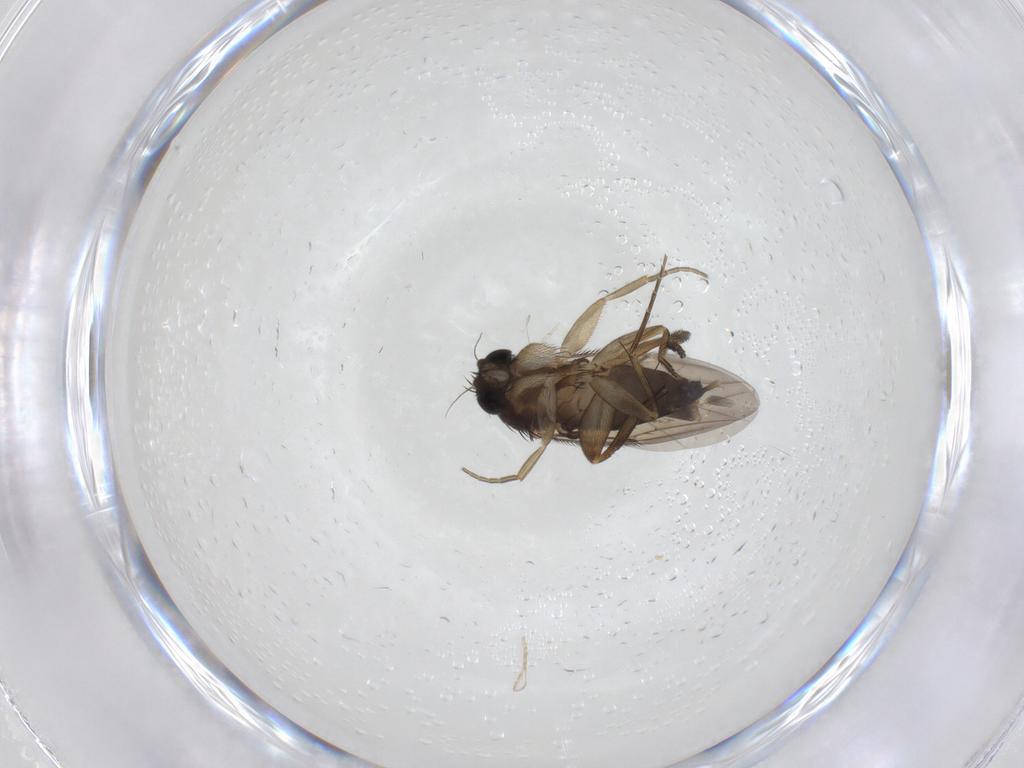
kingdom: Animalia
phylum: Arthropoda
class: Insecta
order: Diptera
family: Phoridae
